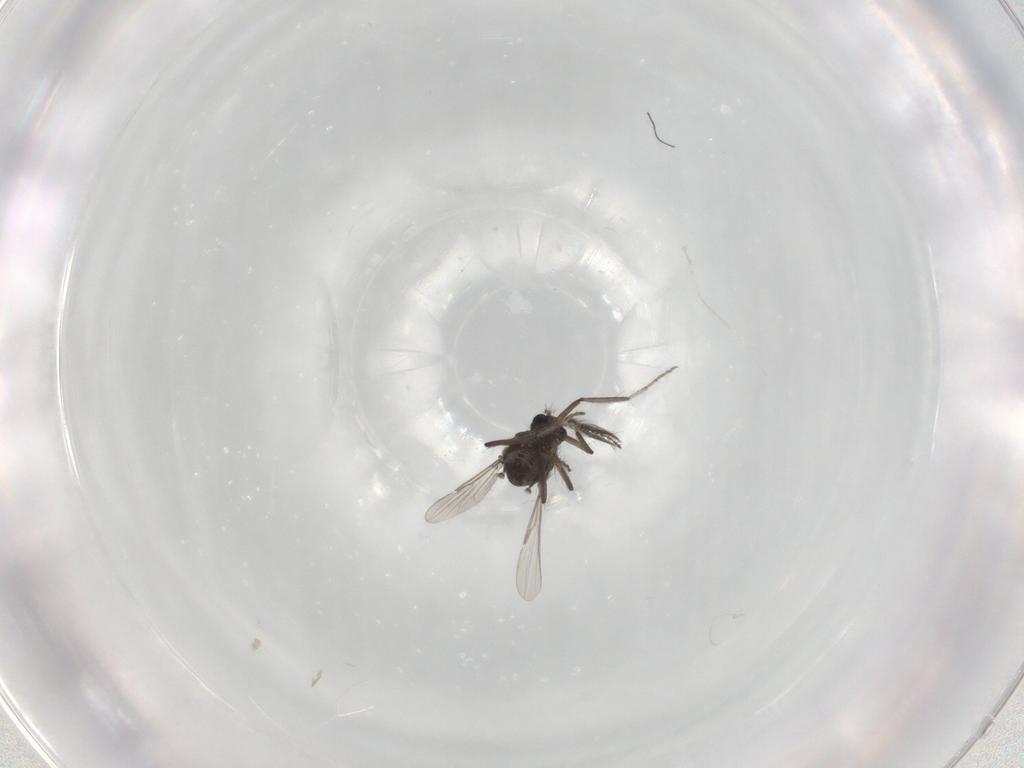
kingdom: Animalia
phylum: Arthropoda
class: Insecta
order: Diptera
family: Ceratopogonidae
